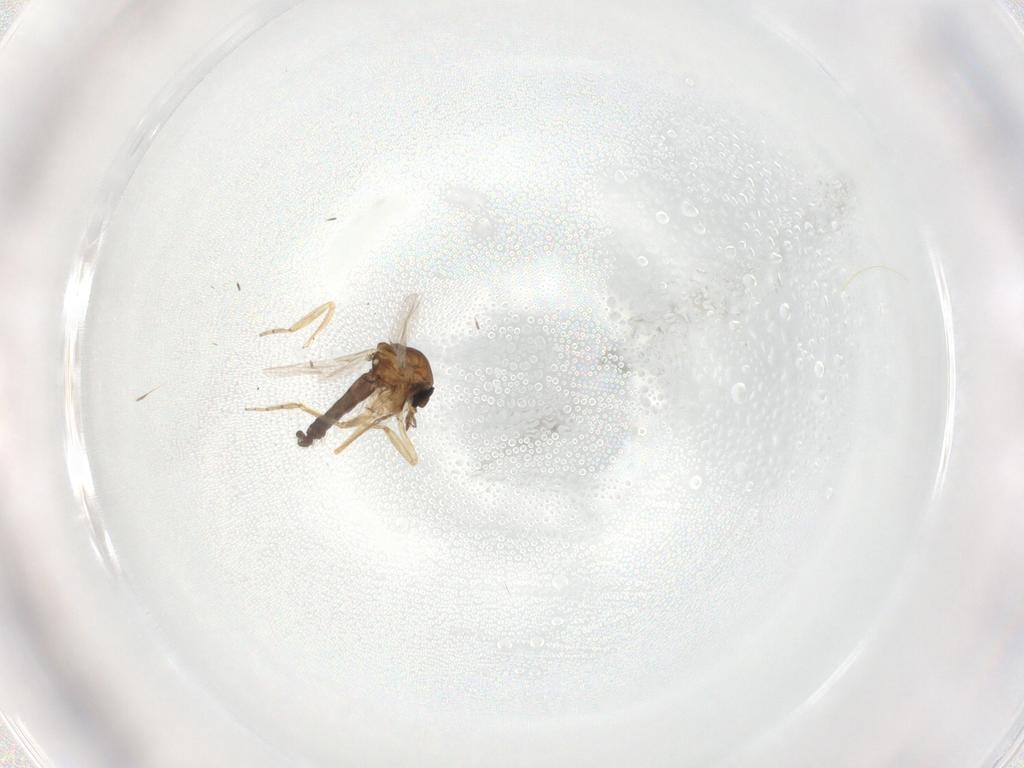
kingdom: Animalia
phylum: Arthropoda
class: Insecta
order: Diptera
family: Ceratopogonidae
